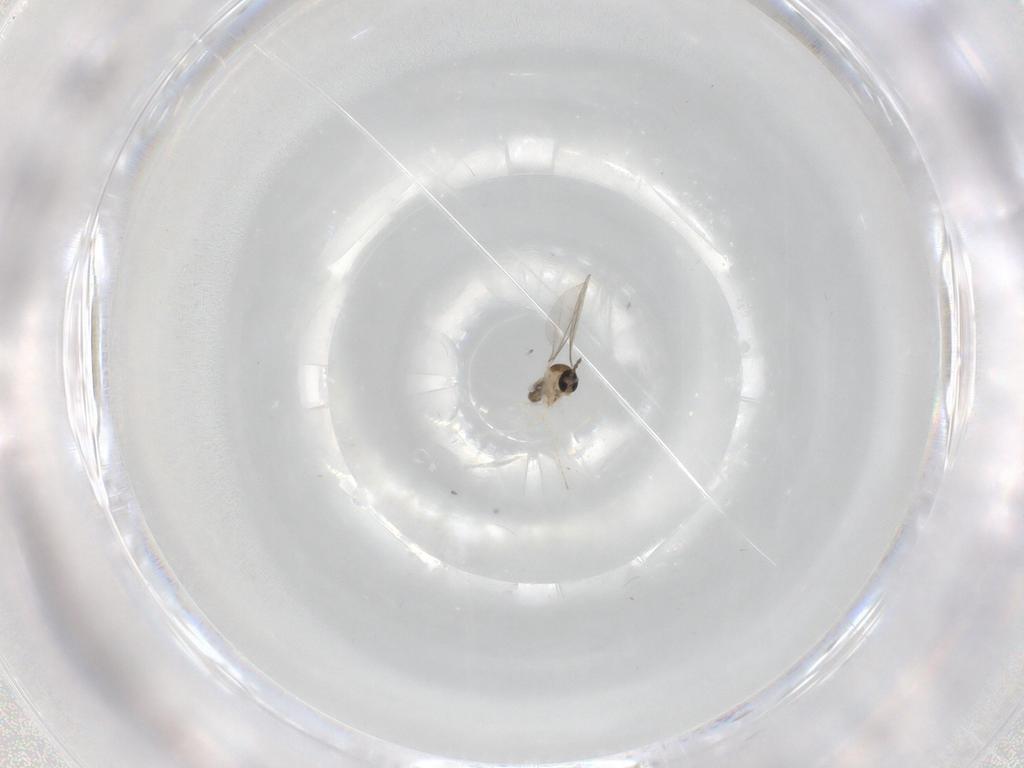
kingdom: Animalia
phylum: Arthropoda
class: Insecta
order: Diptera
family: Cecidomyiidae
